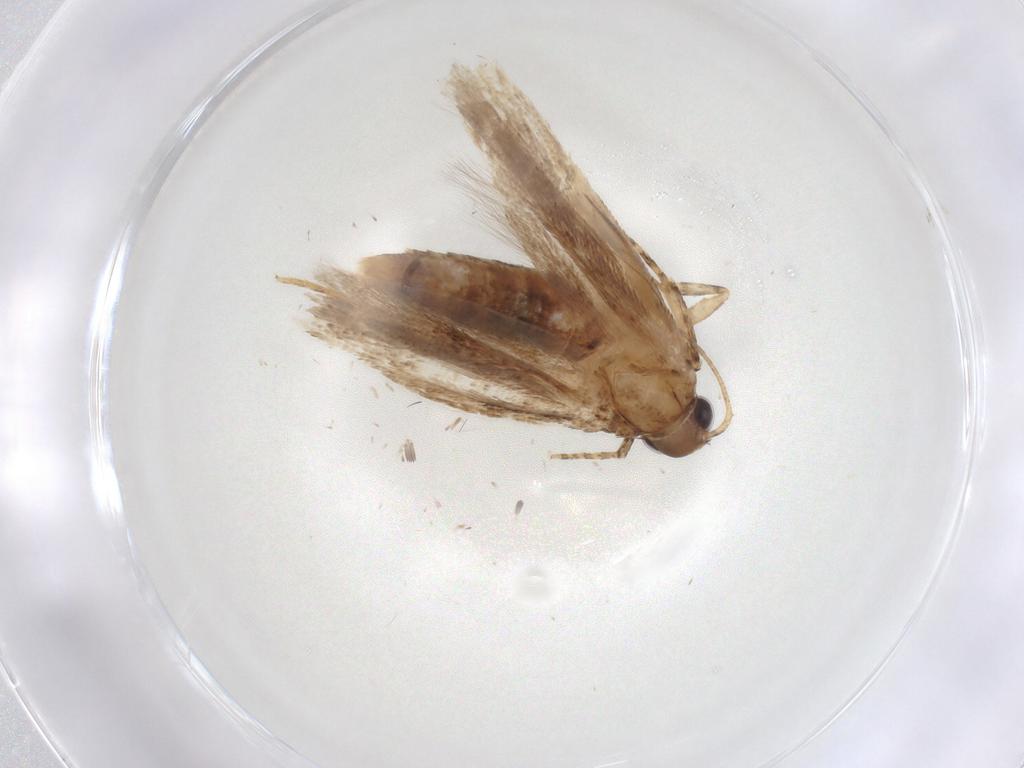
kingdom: Animalia
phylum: Arthropoda
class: Insecta
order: Lepidoptera
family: Gelechiidae
